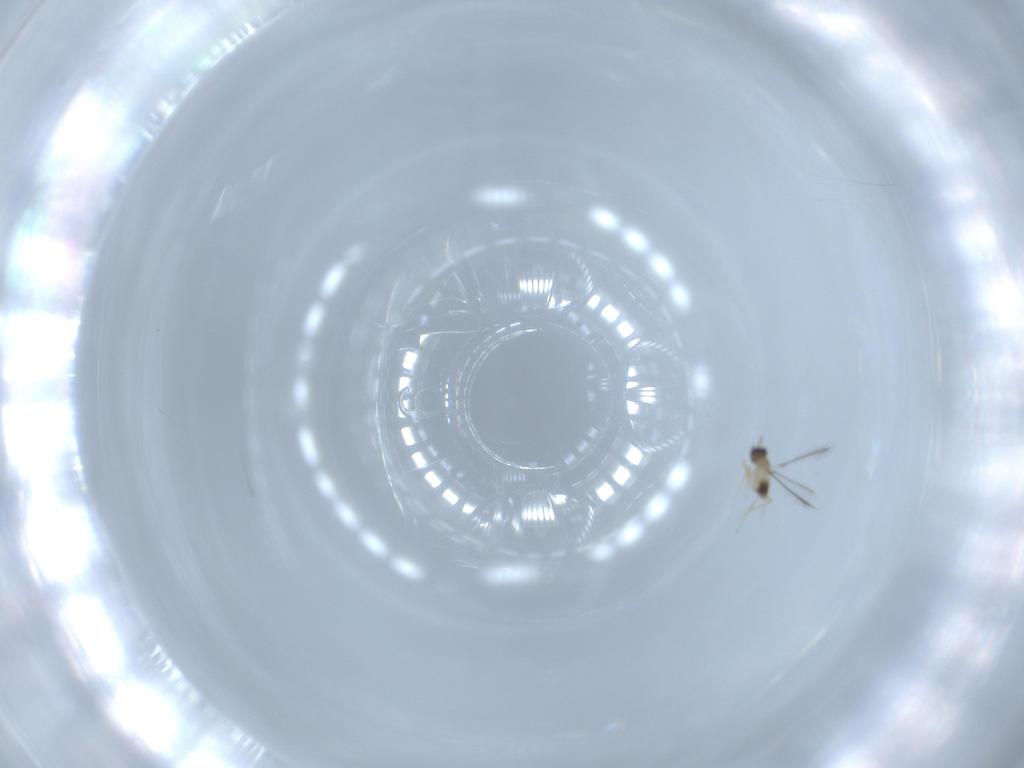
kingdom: Animalia
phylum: Arthropoda
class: Insecta
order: Hymenoptera
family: Mymaridae
